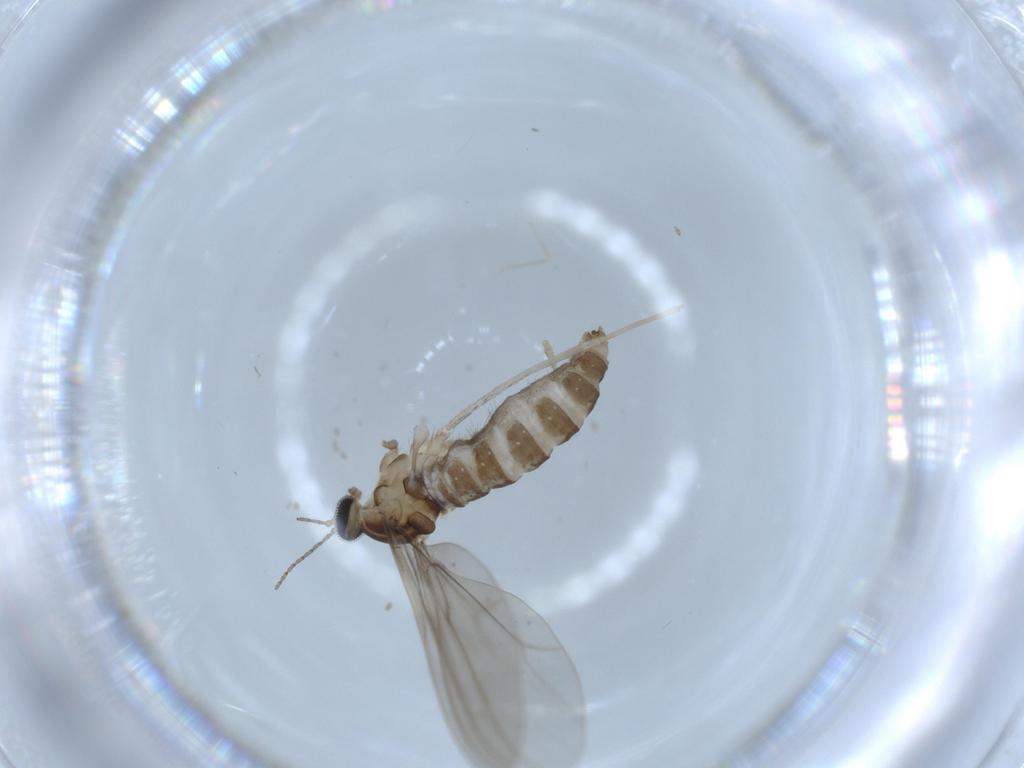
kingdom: Animalia
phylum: Arthropoda
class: Insecta
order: Diptera
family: Cecidomyiidae
